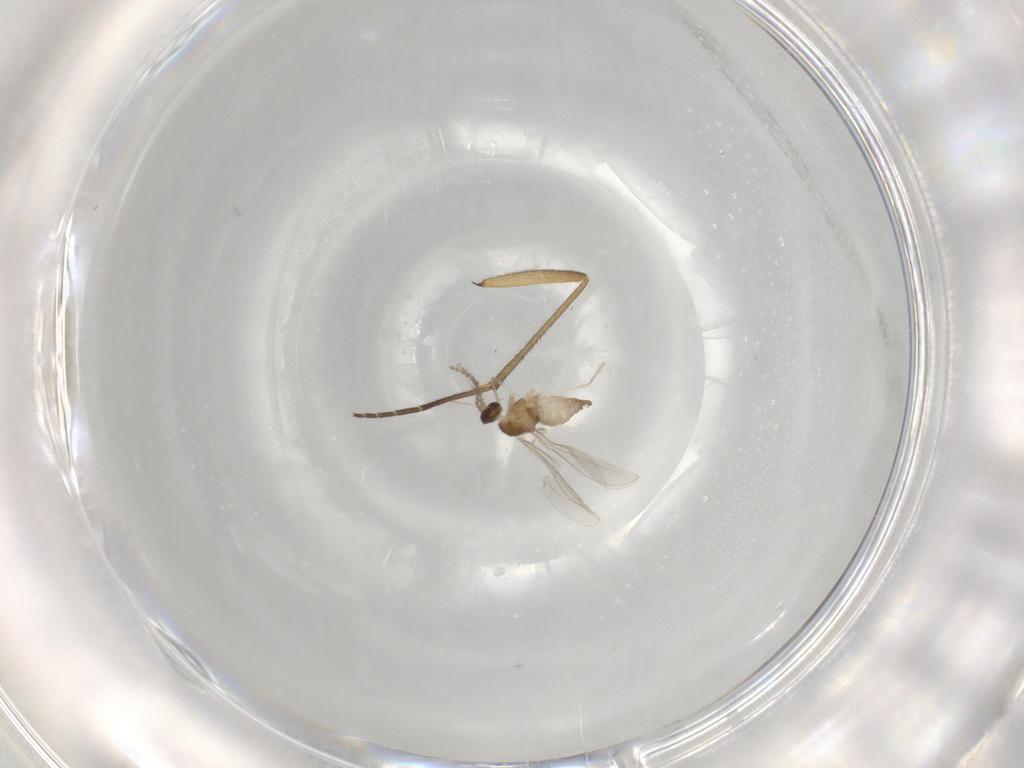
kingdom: Animalia
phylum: Arthropoda
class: Insecta
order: Diptera
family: Cecidomyiidae
